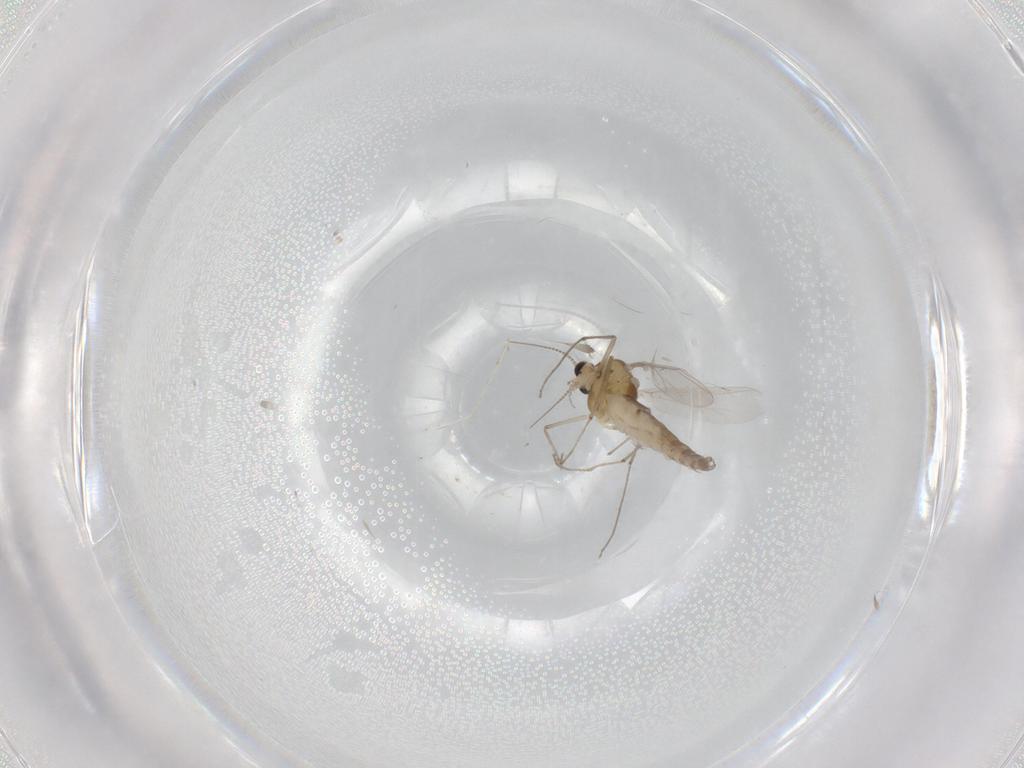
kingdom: Animalia
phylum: Arthropoda
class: Insecta
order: Diptera
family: Chironomidae
